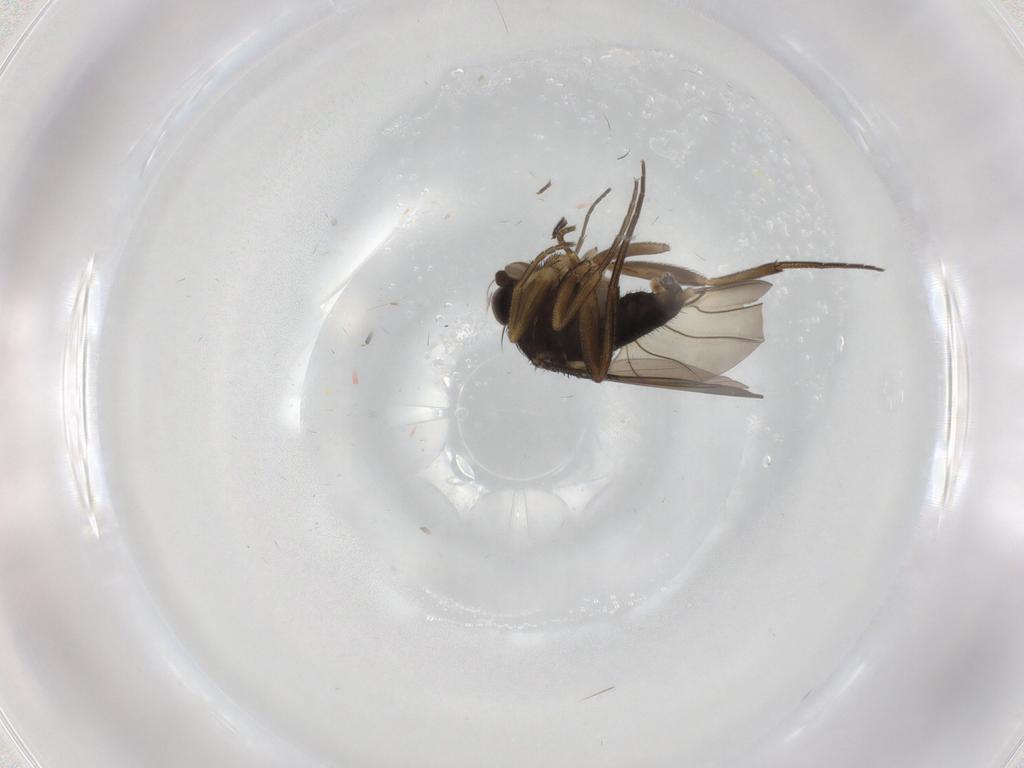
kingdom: Animalia
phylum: Arthropoda
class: Insecta
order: Diptera
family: Phoridae
